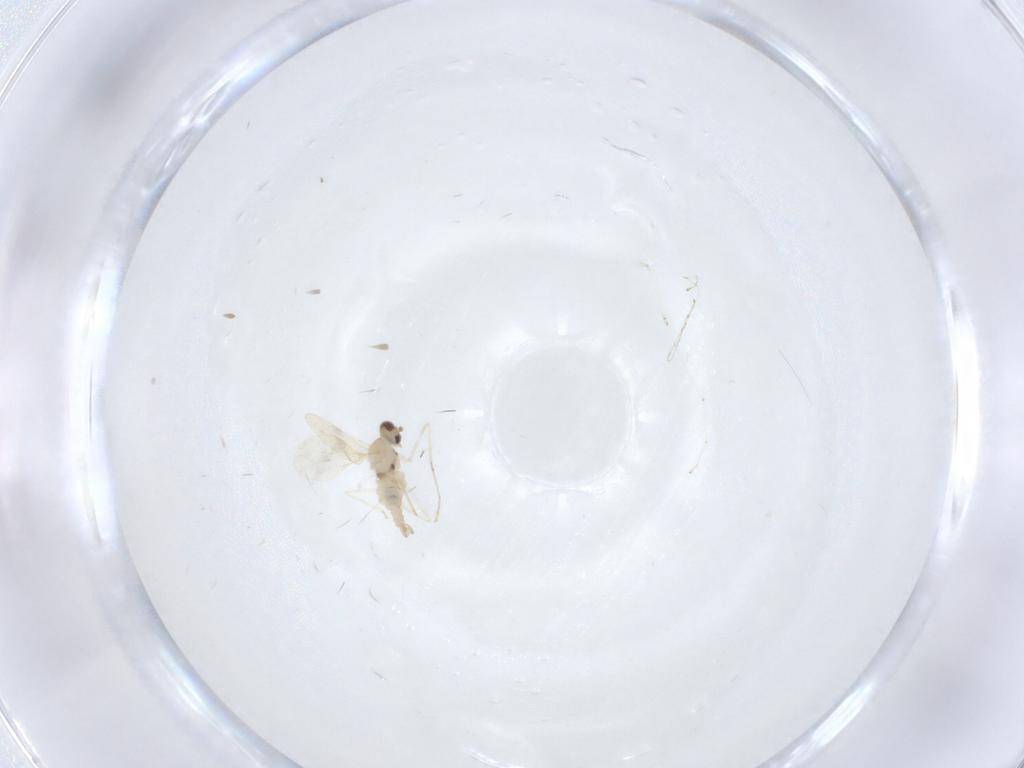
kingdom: Animalia
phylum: Arthropoda
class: Insecta
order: Diptera
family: Cecidomyiidae
